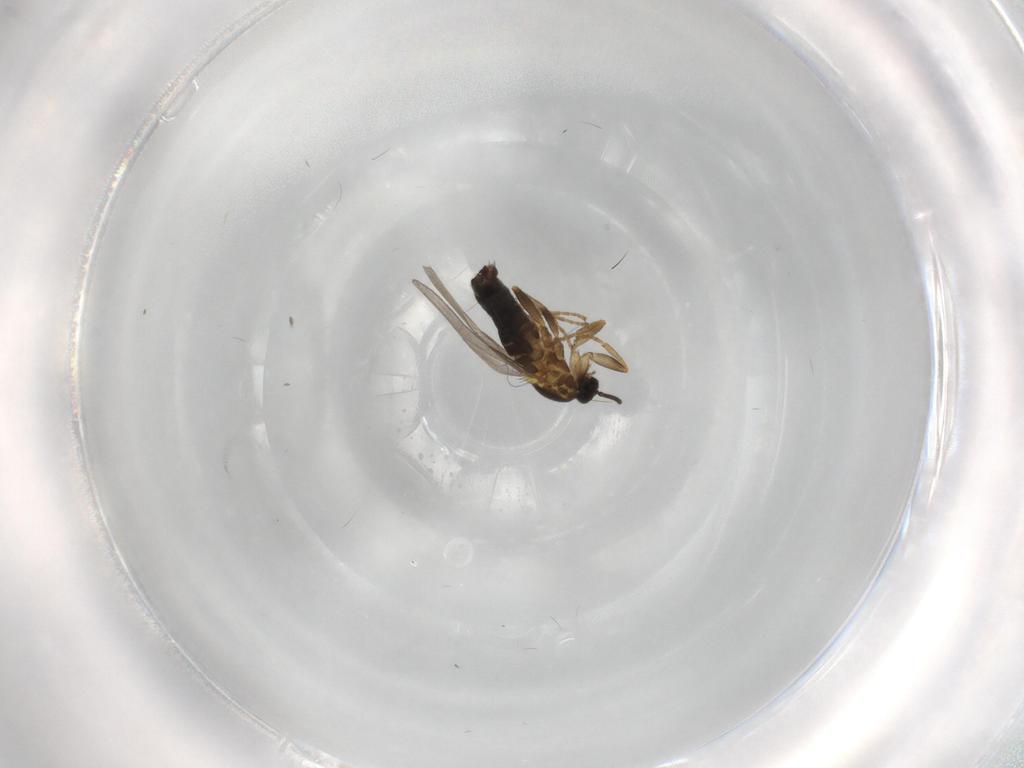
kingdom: Animalia
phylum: Arthropoda
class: Insecta
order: Diptera
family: Scatopsidae
